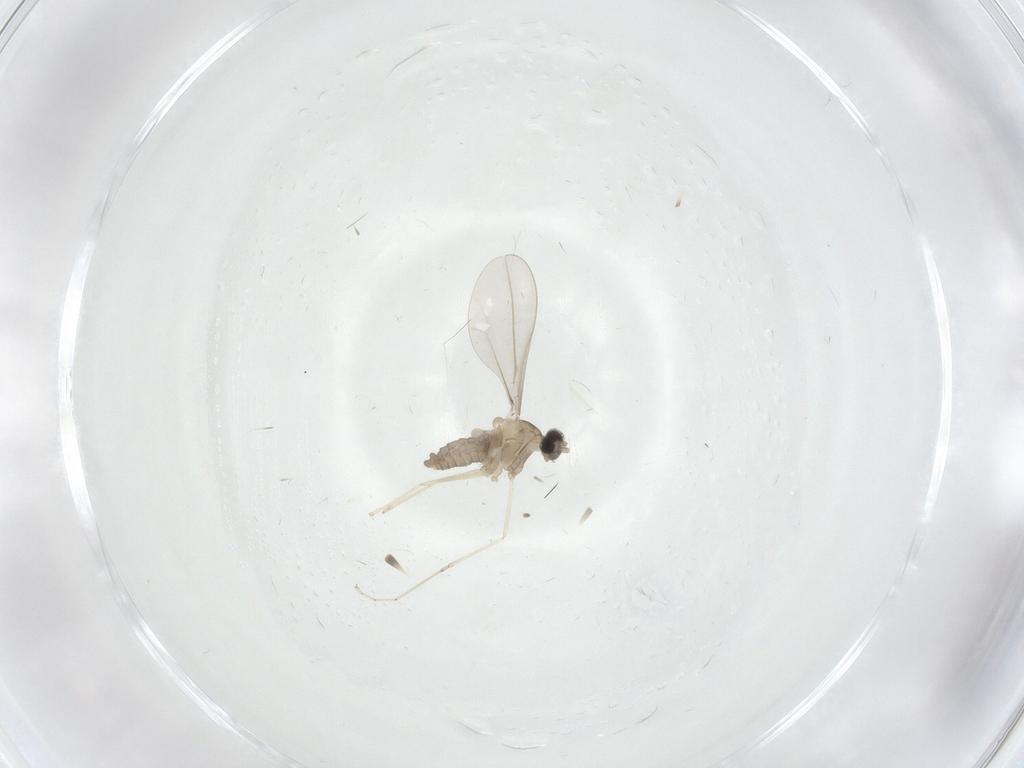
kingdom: Animalia
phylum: Arthropoda
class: Insecta
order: Diptera
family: Cecidomyiidae
